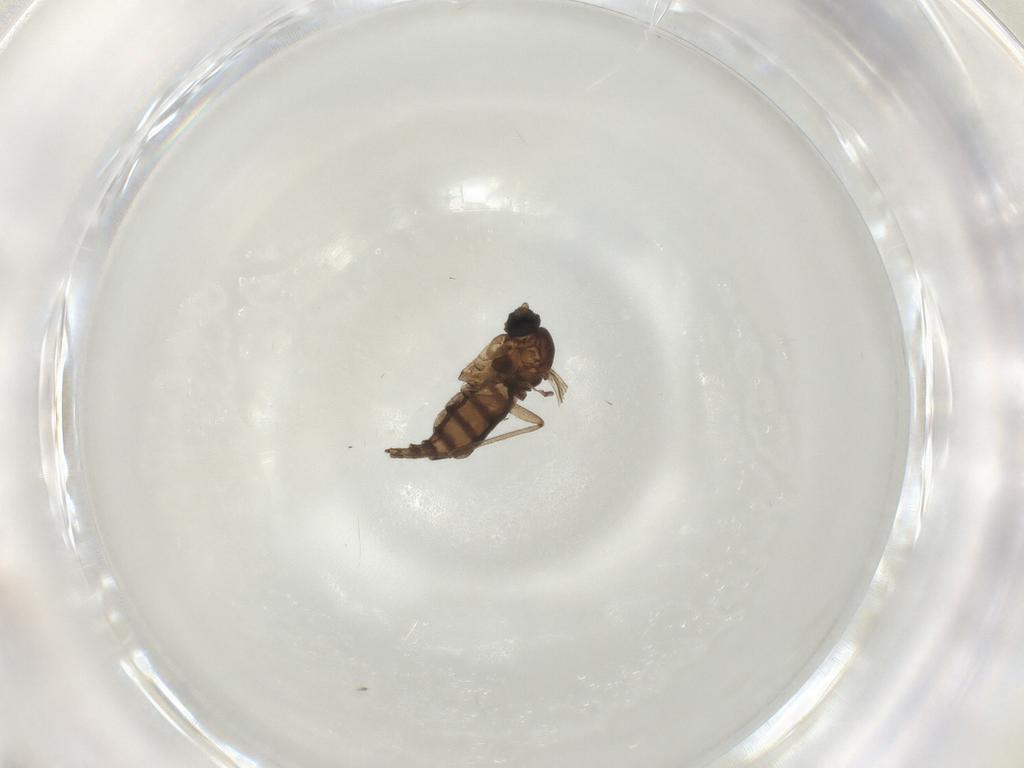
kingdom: Animalia
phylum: Arthropoda
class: Insecta
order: Diptera
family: Sciaridae
